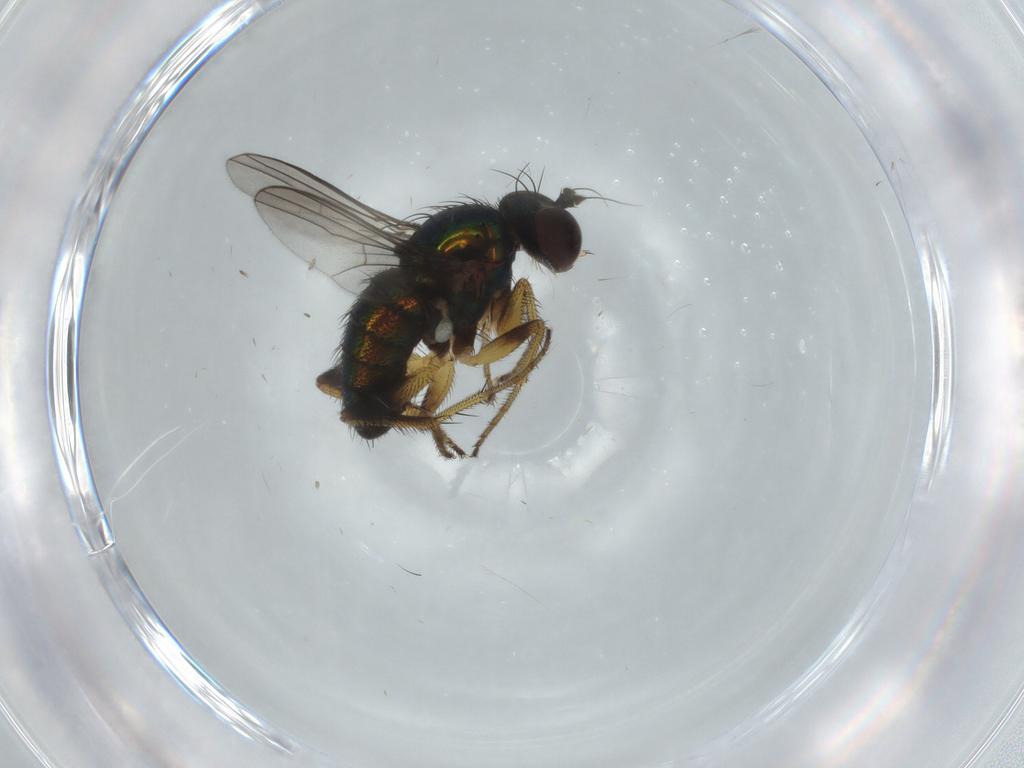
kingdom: Animalia
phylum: Arthropoda
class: Insecta
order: Diptera
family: Dolichopodidae
